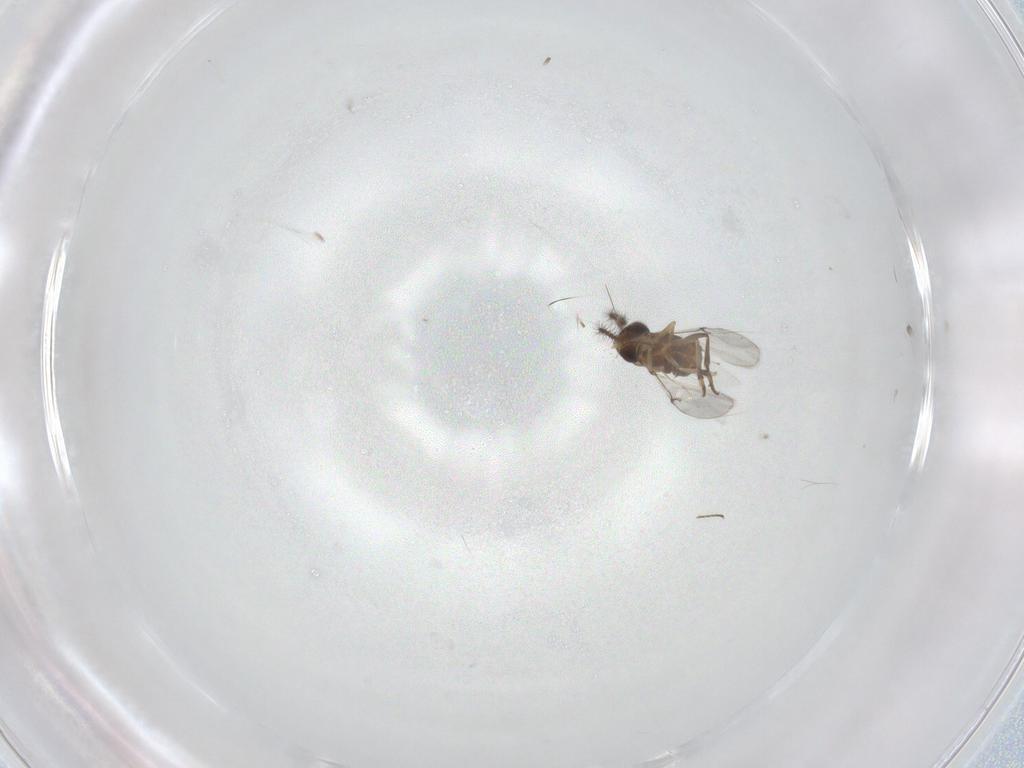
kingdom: Animalia
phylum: Arthropoda
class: Insecta
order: Hymenoptera
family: Encyrtidae
